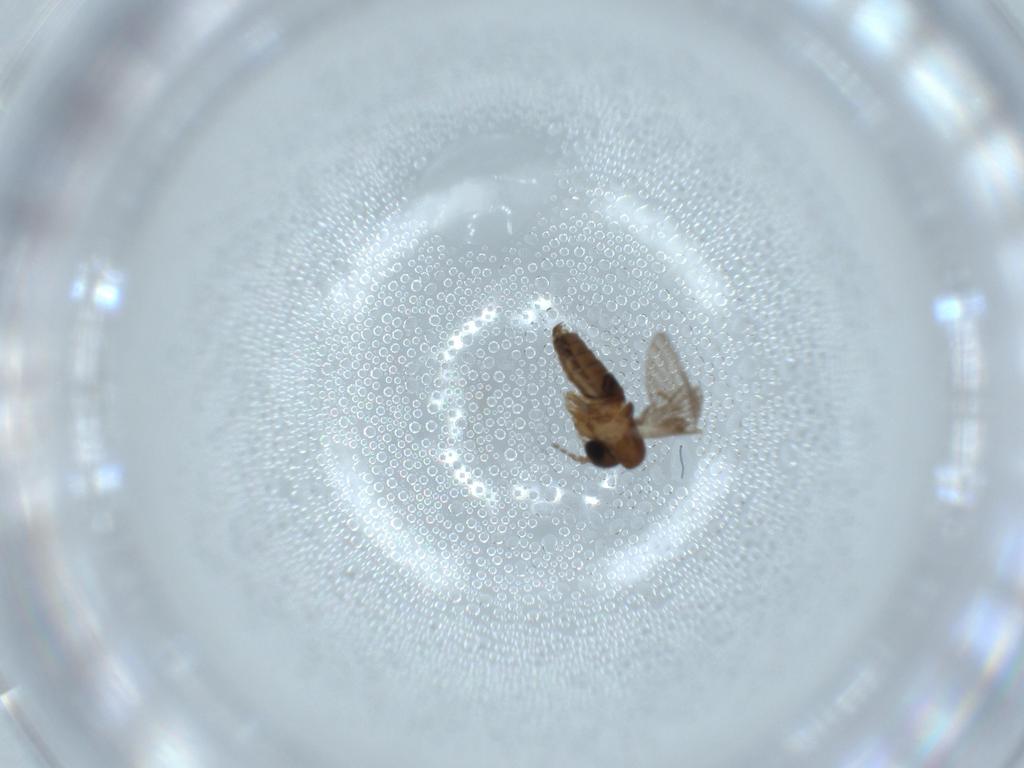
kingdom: Animalia
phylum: Arthropoda
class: Insecta
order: Diptera
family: Psychodidae
